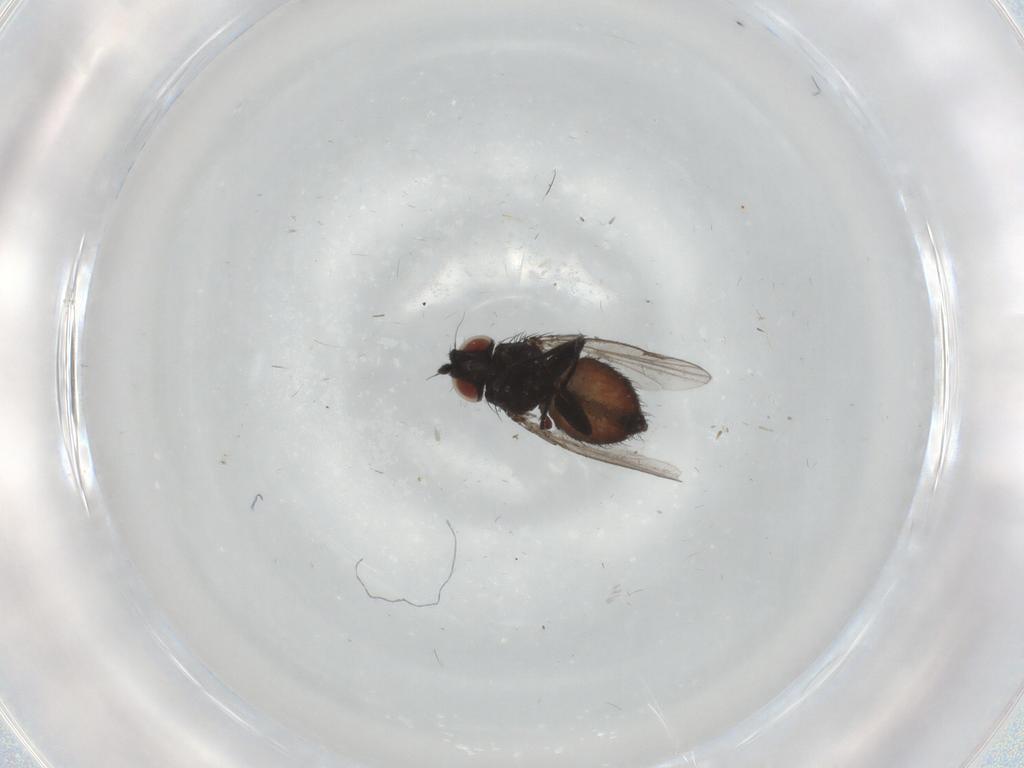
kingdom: Animalia
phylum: Arthropoda
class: Insecta
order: Diptera
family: Milichiidae
